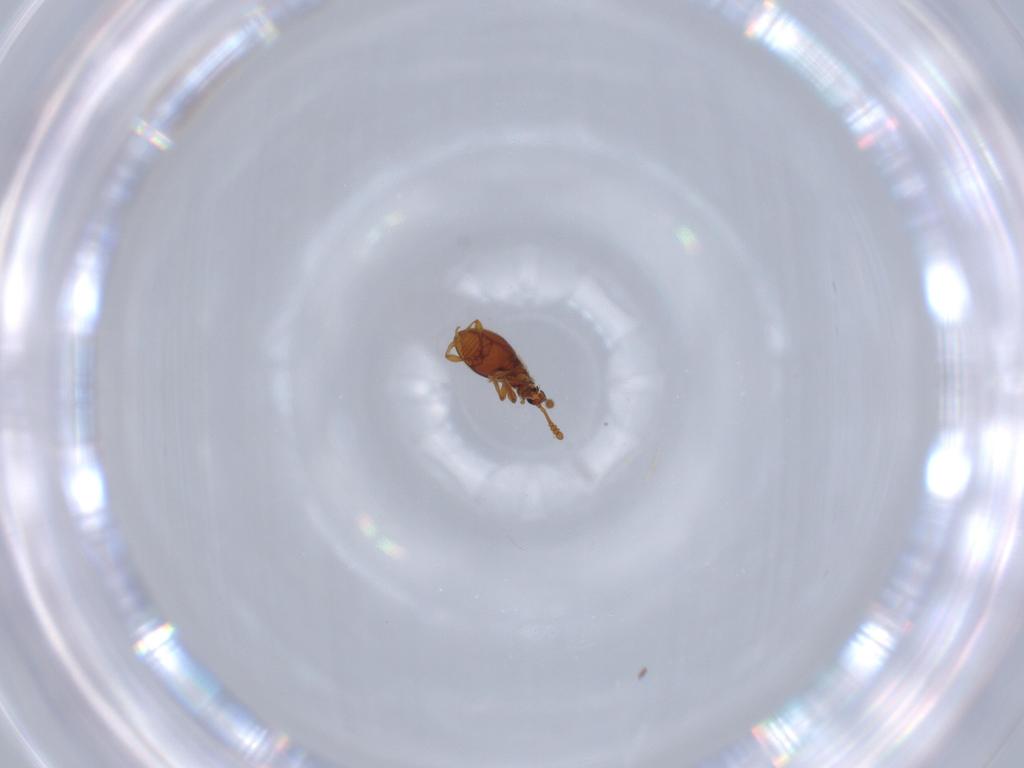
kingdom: Animalia
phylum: Arthropoda
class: Insecta
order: Coleoptera
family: Staphylinidae
